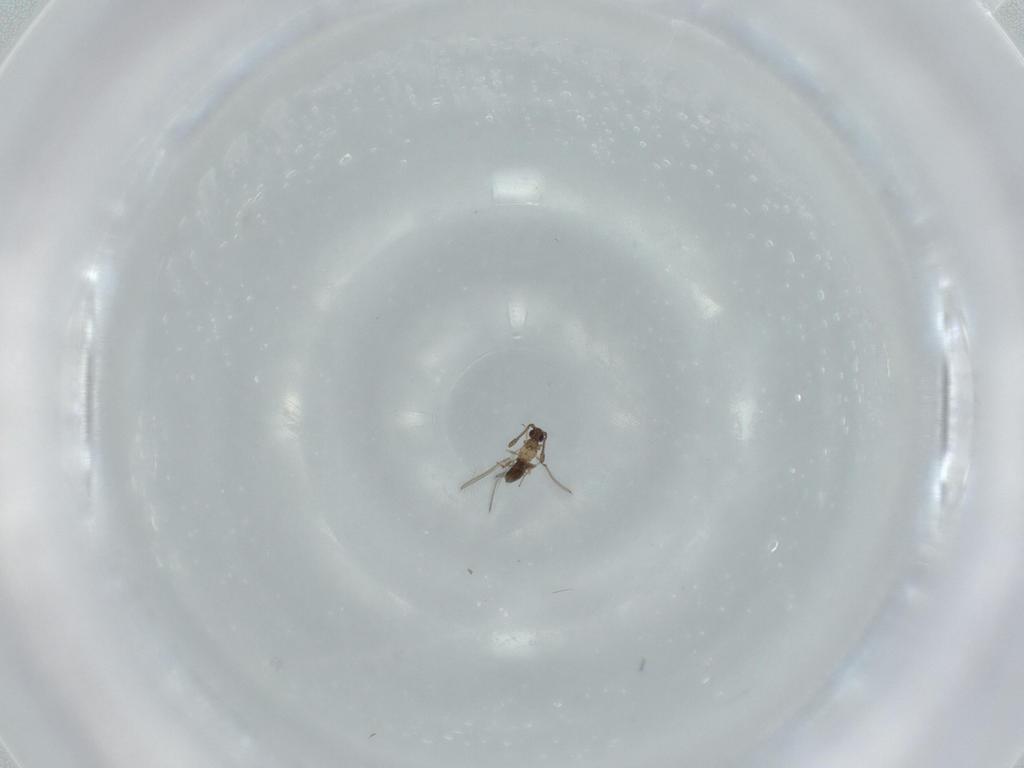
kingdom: Animalia
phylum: Arthropoda
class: Insecta
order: Hymenoptera
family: Mymaridae
